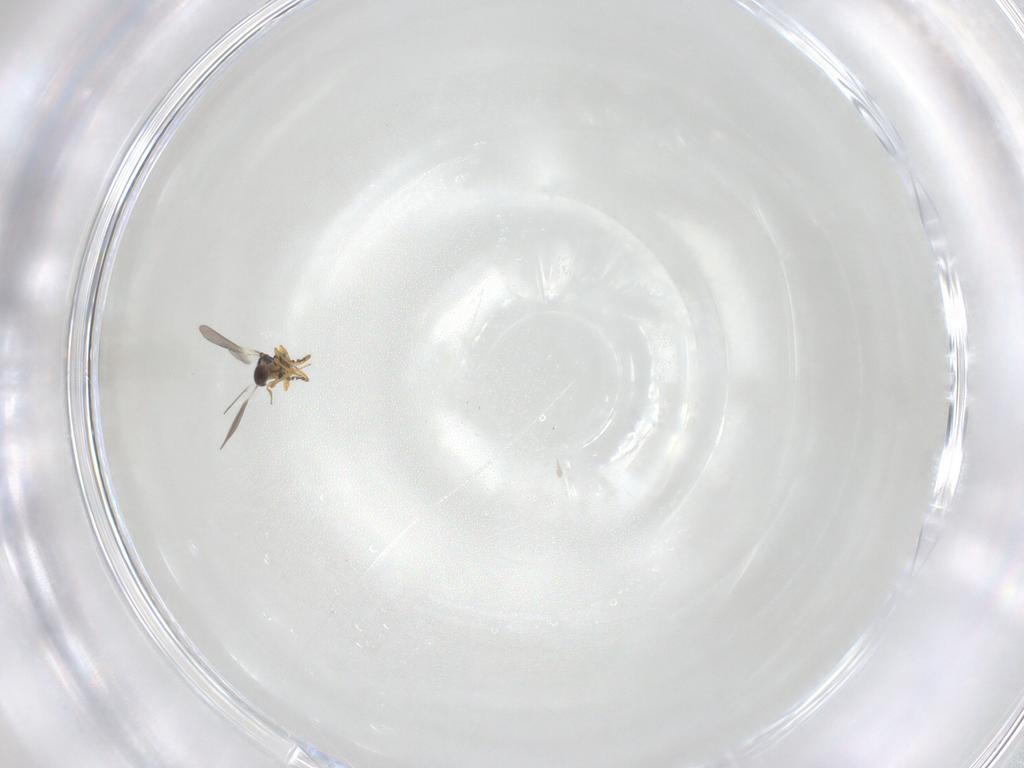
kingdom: Animalia
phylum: Arthropoda
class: Insecta
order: Hymenoptera
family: Platygastridae
